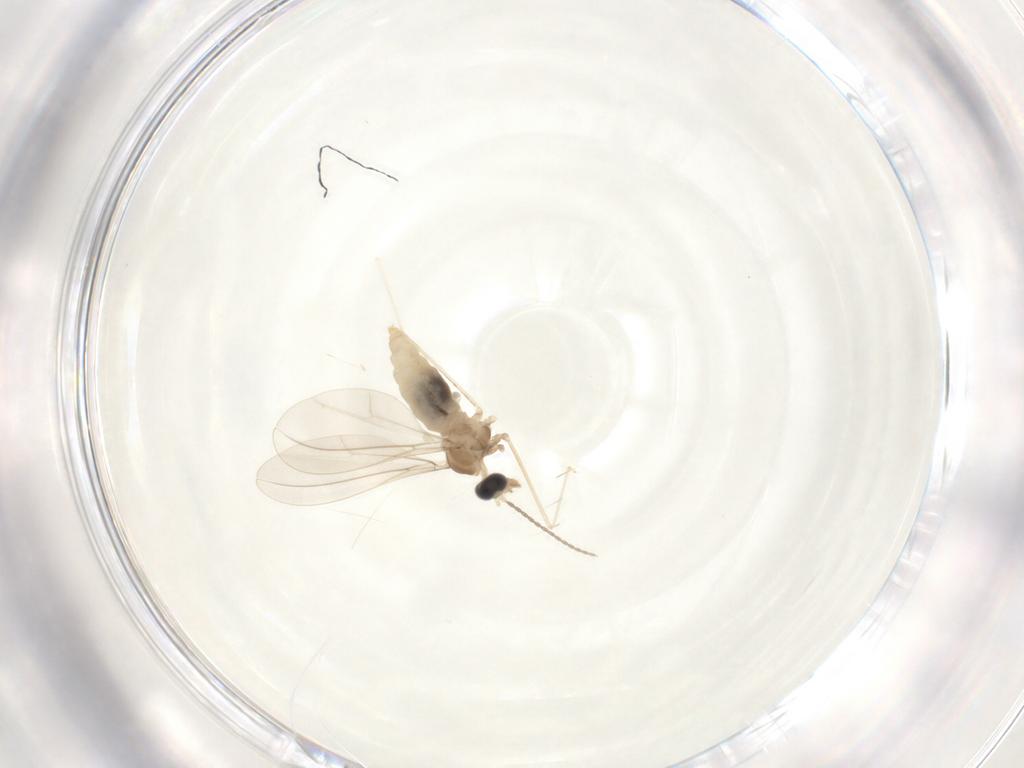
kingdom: Animalia
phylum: Arthropoda
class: Insecta
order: Diptera
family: Cecidomyiidae
